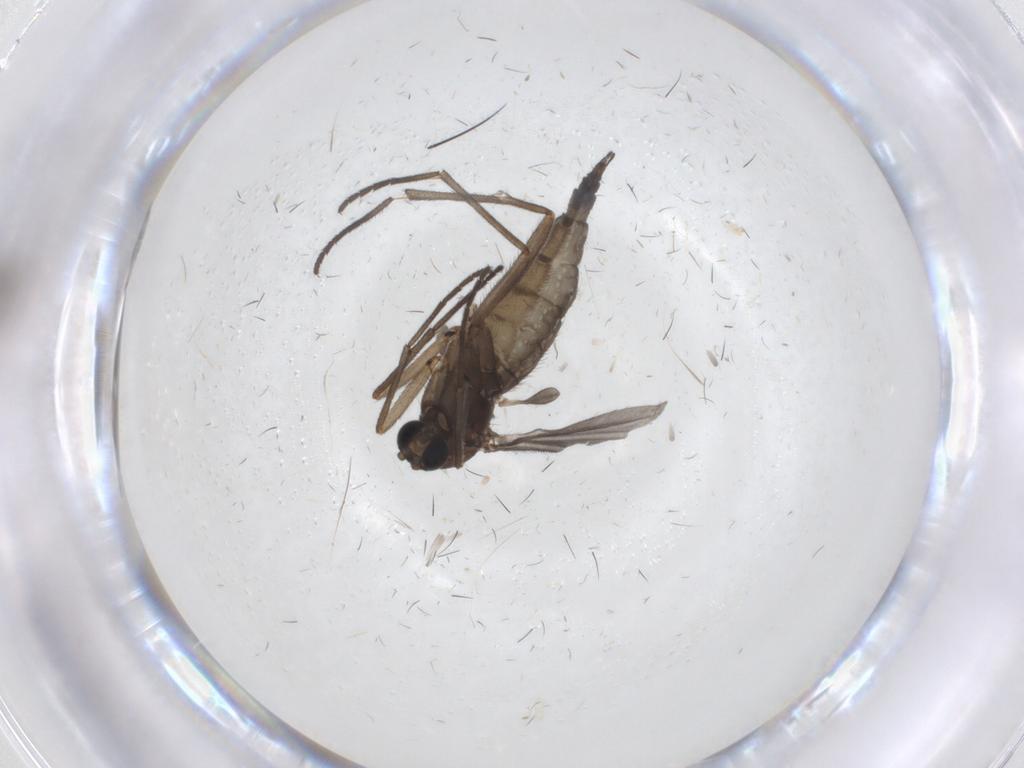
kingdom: Animalia
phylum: Arthropoda
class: Insecta
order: Diptera
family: Sciaridae
